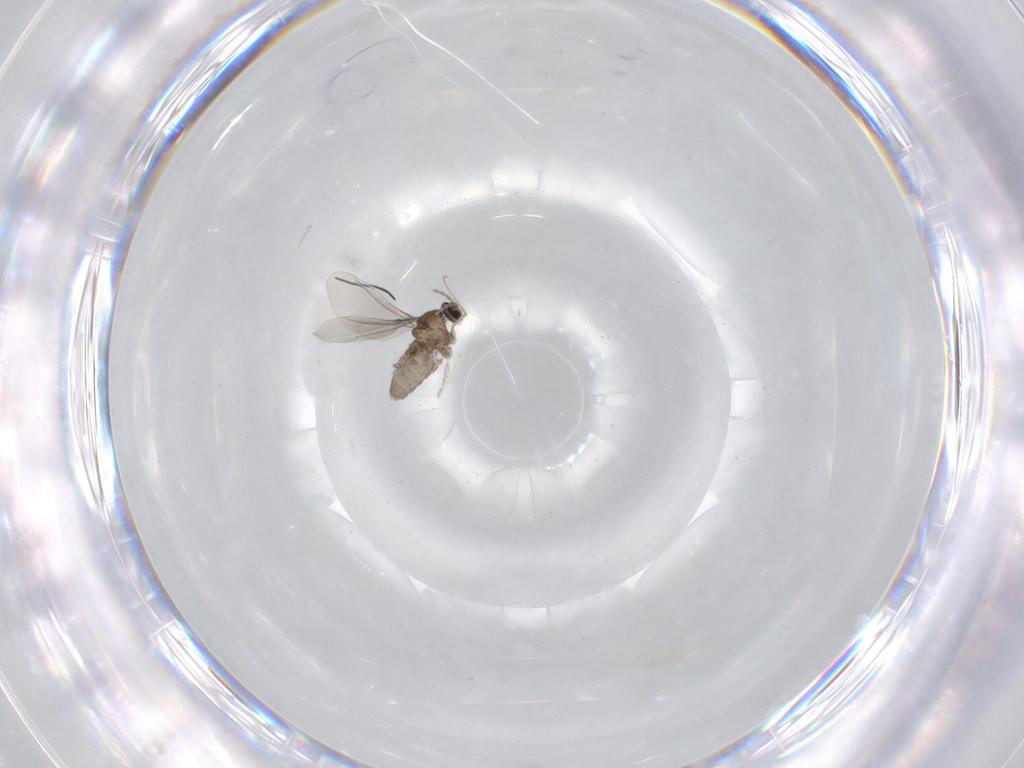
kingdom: Animalia
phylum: Arthropoda
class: Insecta
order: Diptera
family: Cecidomyiidae
